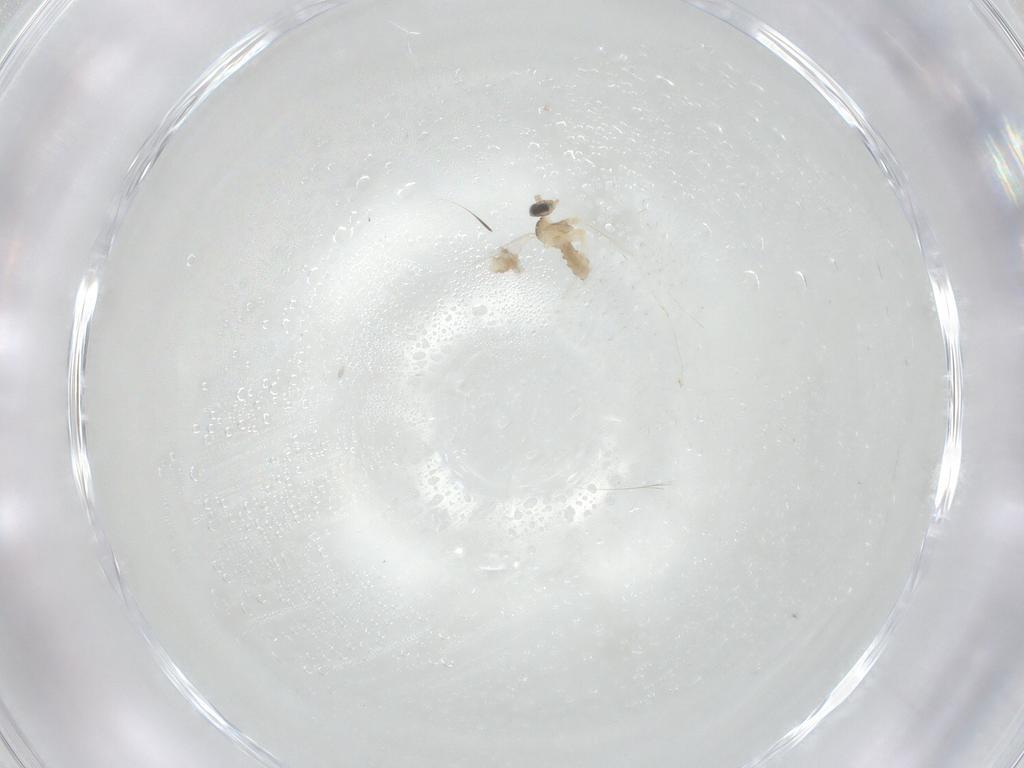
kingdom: Animalia
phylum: Arthropoda
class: Insecta
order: Diptera
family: Cecidomyiidae
